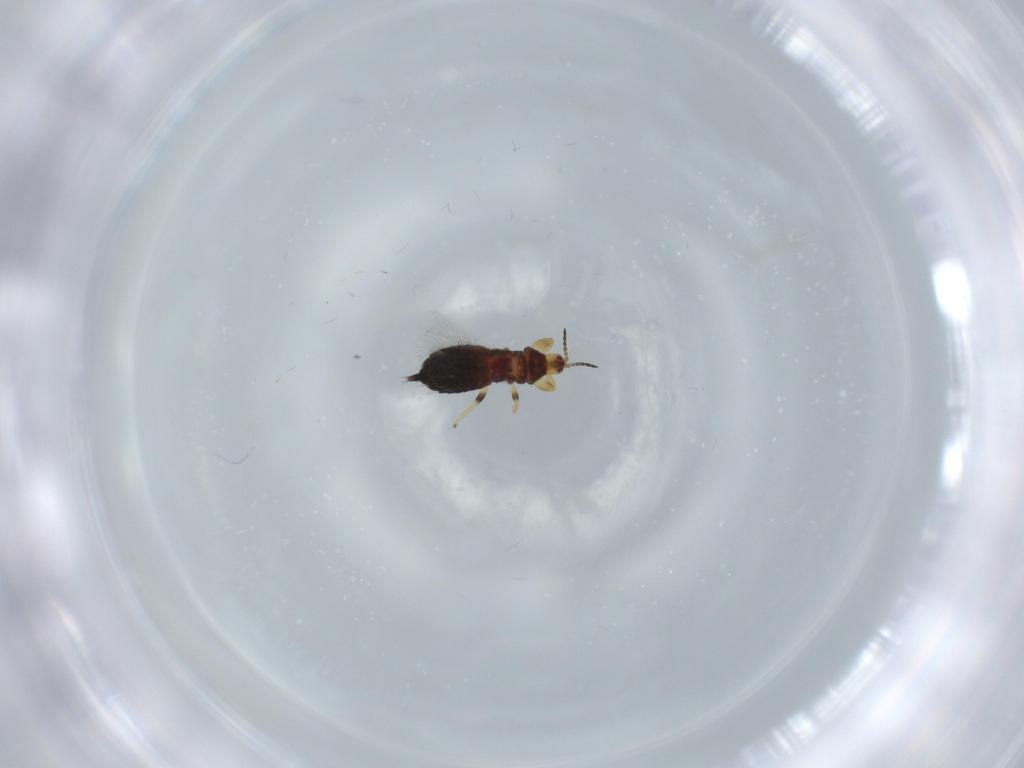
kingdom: Animalia
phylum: Arthropoda
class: Insecta
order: Thysanoptera
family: Phlaeothripidae
